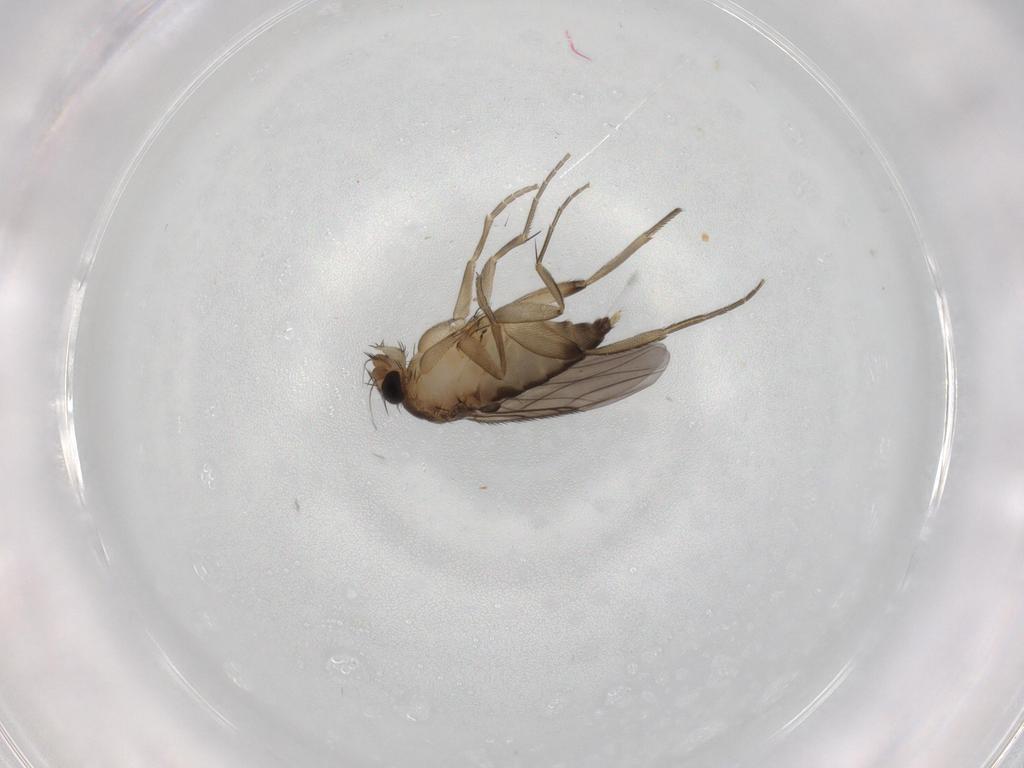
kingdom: Animalia
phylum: Arthropoda
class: Insecta
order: Diptera
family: Phoridae
